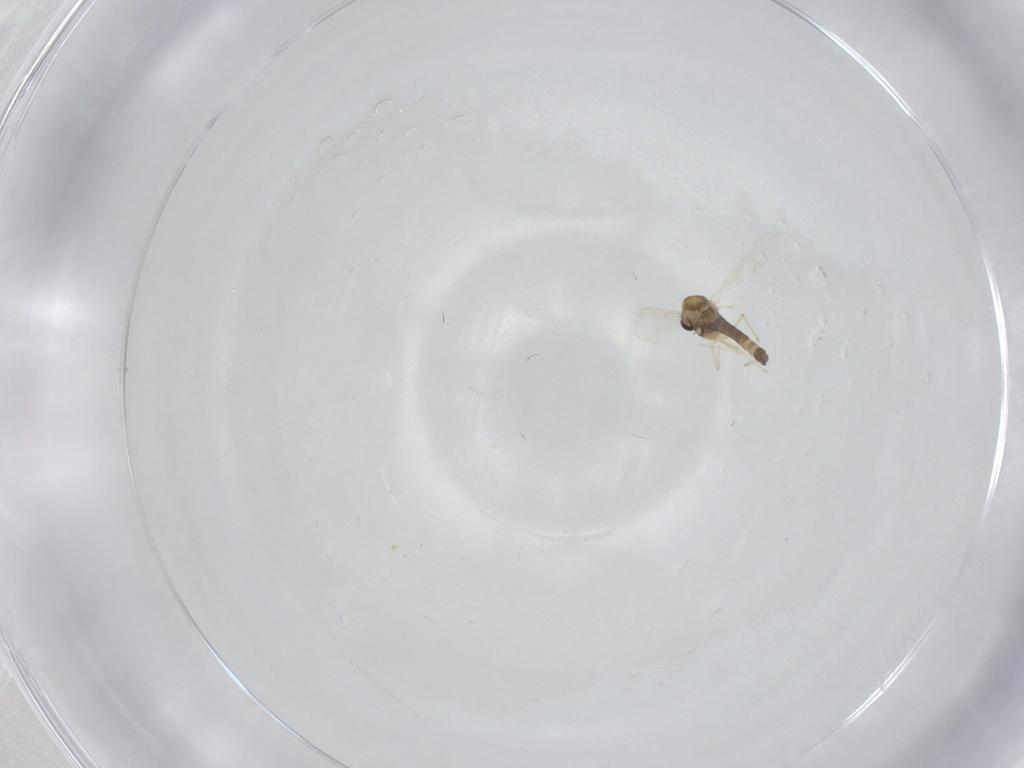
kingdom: Animalia
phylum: Arthropoda
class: Insecta
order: Diptera
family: Chironomidae
